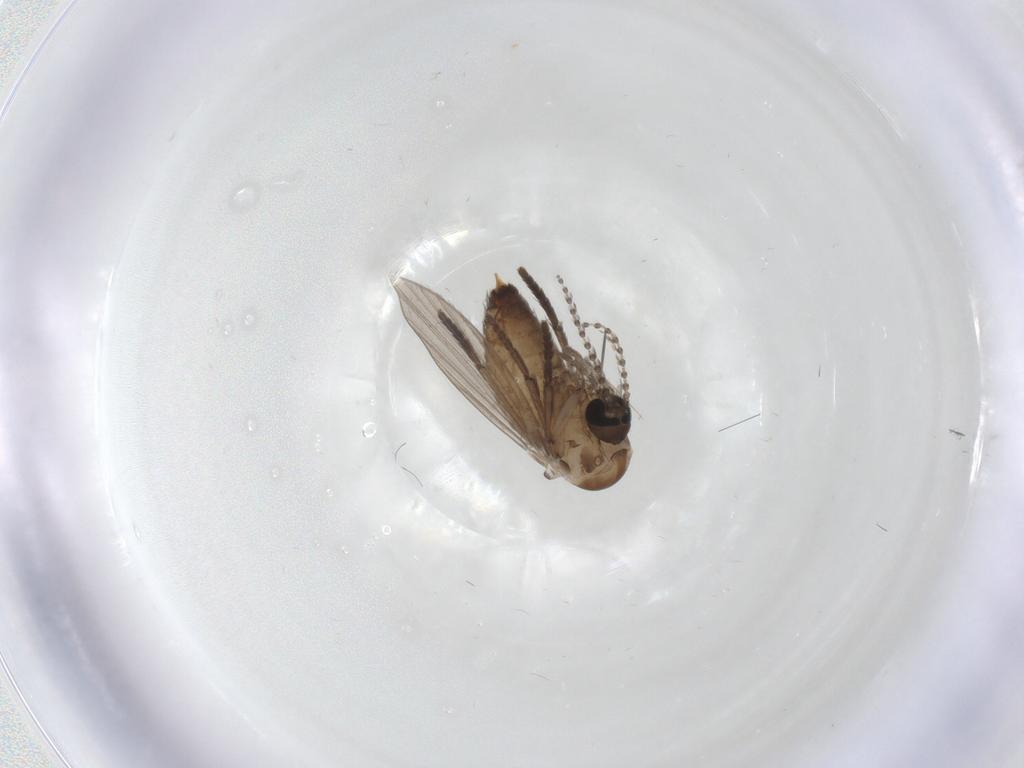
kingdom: Animalia
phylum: Arthropoda
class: Insecta
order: Diptera
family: Psychodidae
